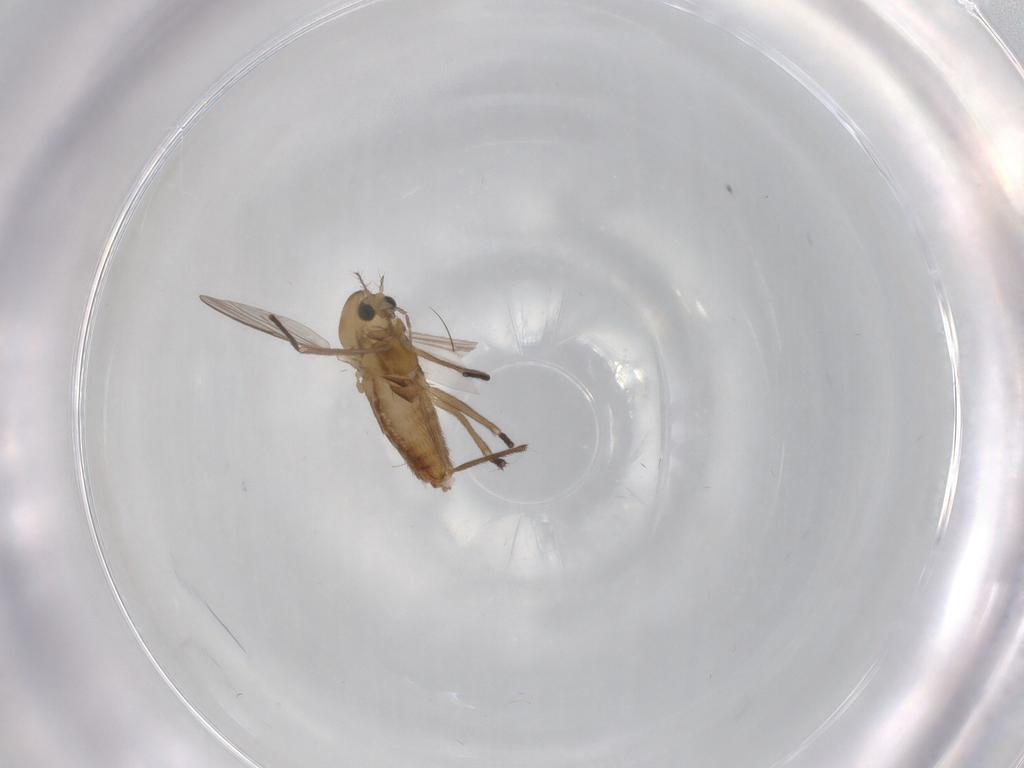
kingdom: Animalia
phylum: Arthropoda
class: Insecta
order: Diptera
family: Chironomidae
